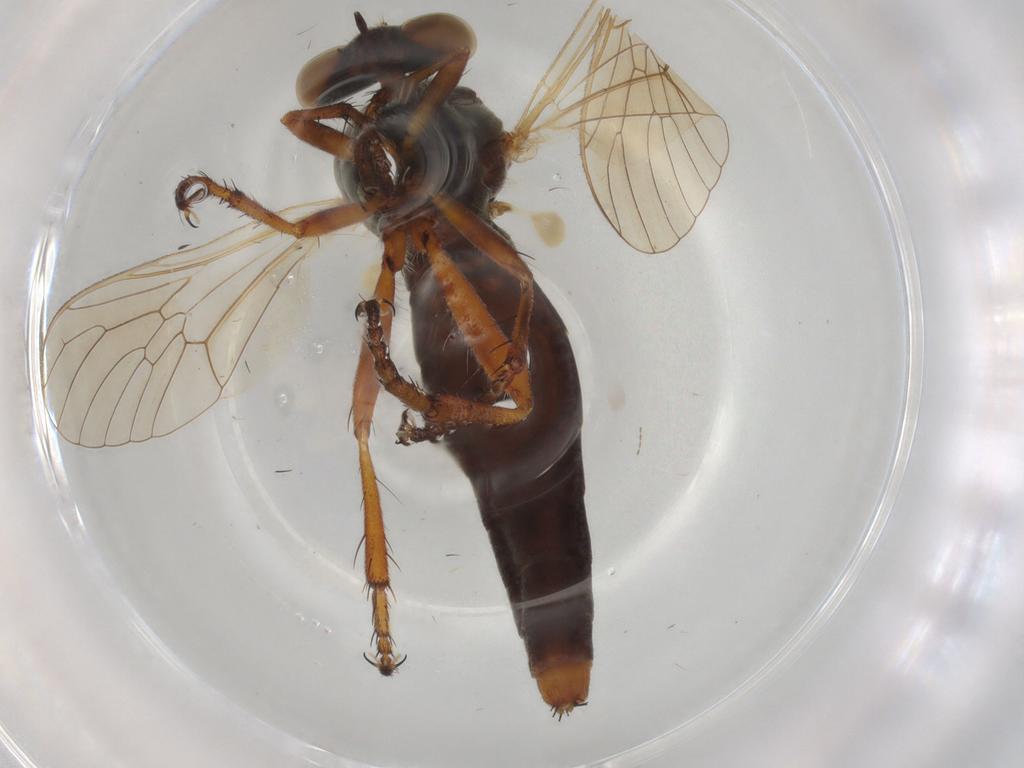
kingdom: Animalia
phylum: Arthropoda
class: Insecta
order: Diptera
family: Asilidae
